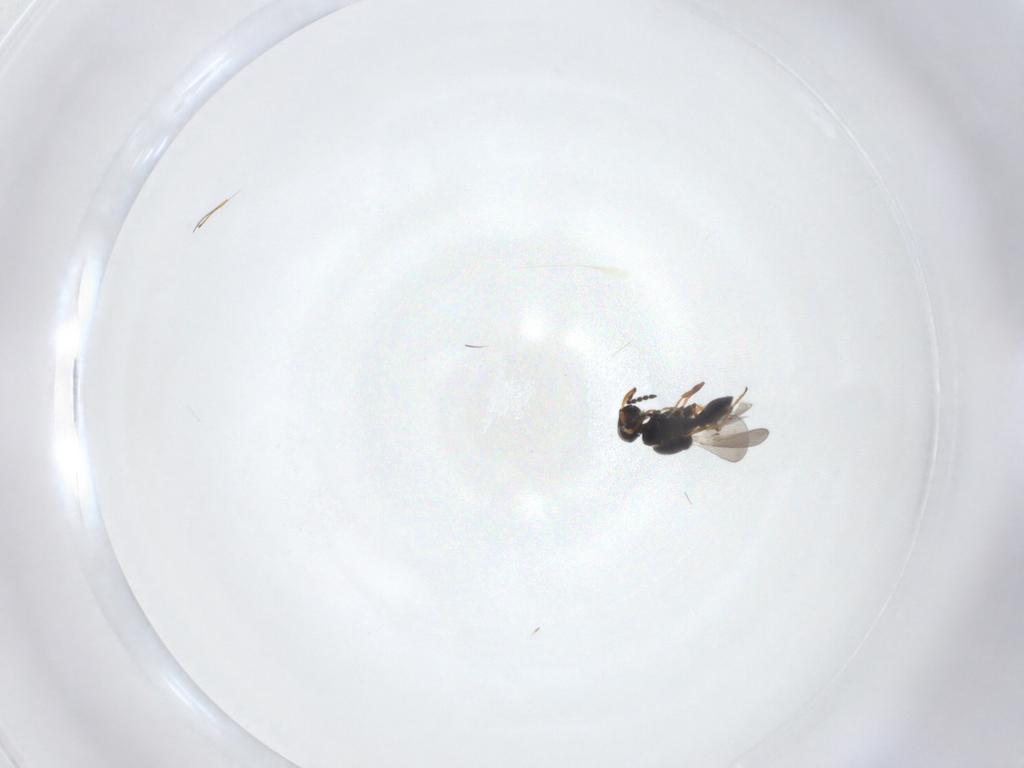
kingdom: Animalia
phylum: Arthropoda
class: Insecta
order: Hymenoptera
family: Platygastridae
